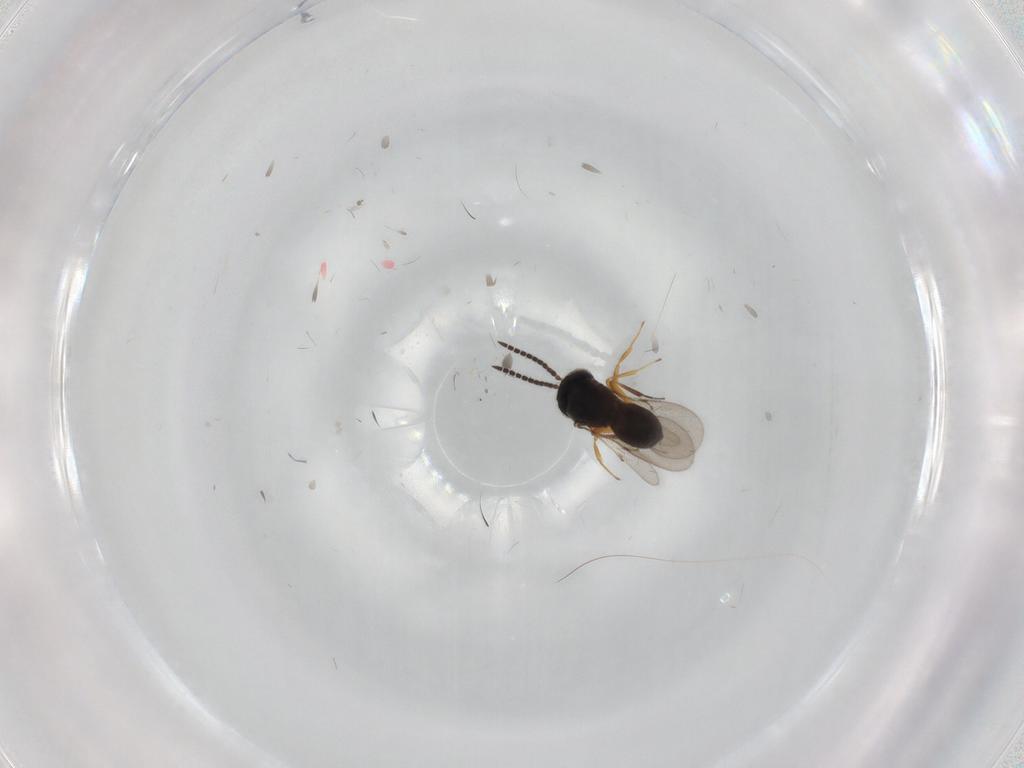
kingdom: Animalia
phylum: Arthropoda
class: Insecta
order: Hymenoptera
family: Scelionidae
